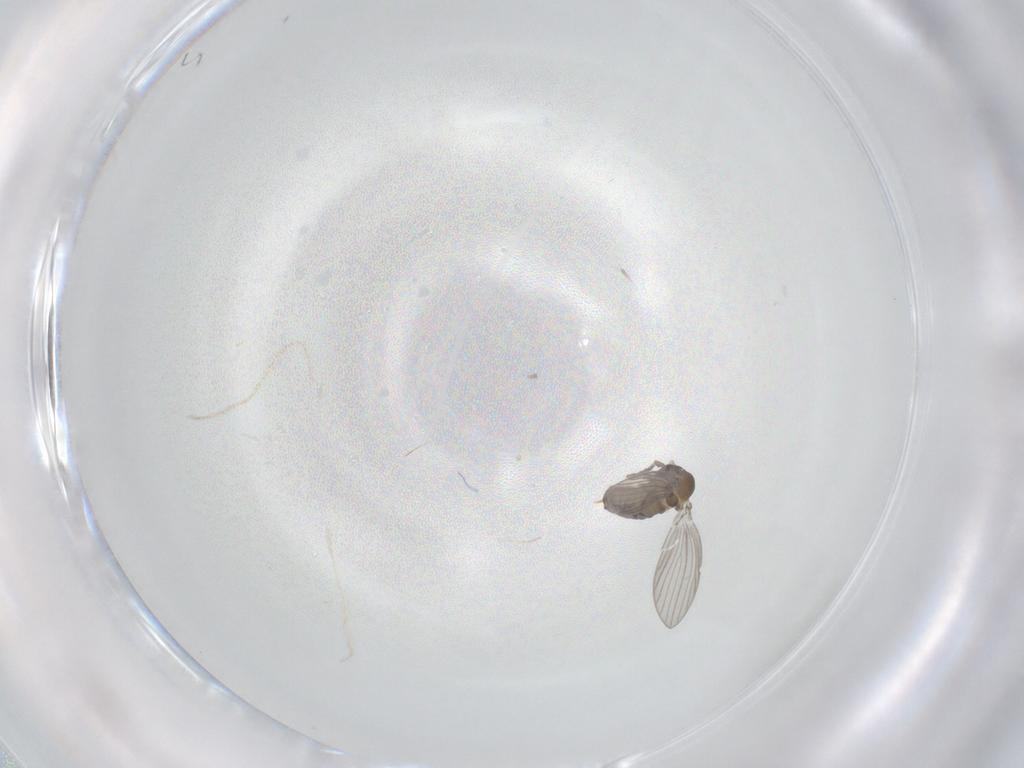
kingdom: Animalia
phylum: Arthropoda
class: Insecta
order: Diptera
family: Psychodidae
